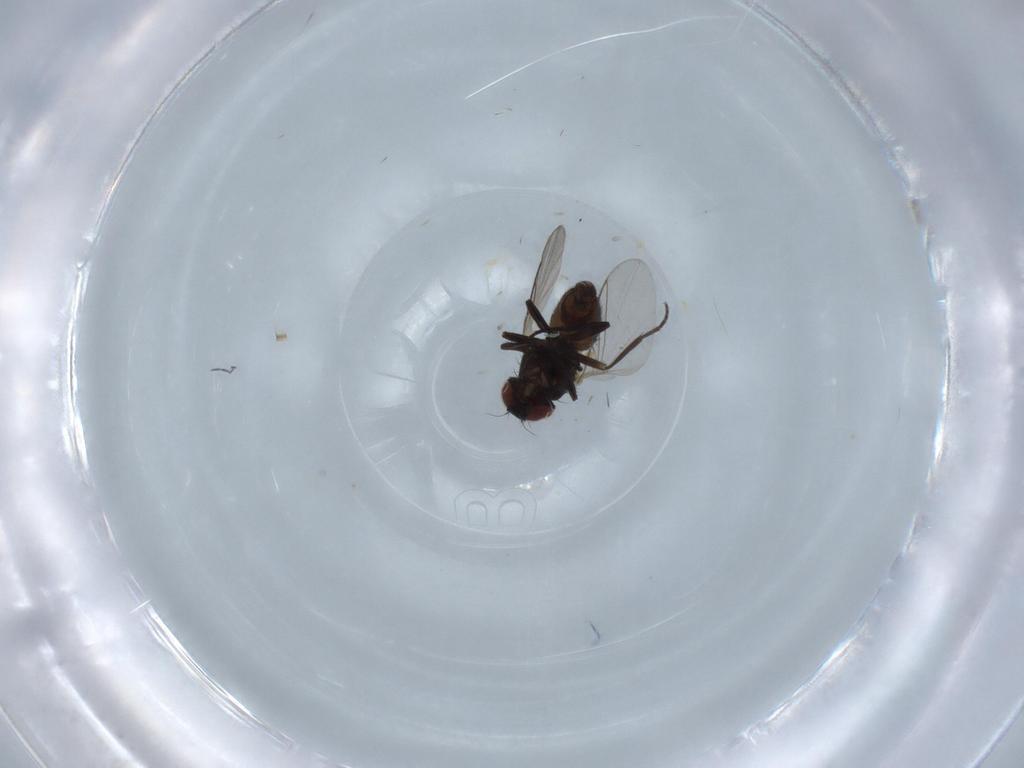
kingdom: Animalia
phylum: Arthropoda
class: Insecta
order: Diptera
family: Ceratopogonidae
